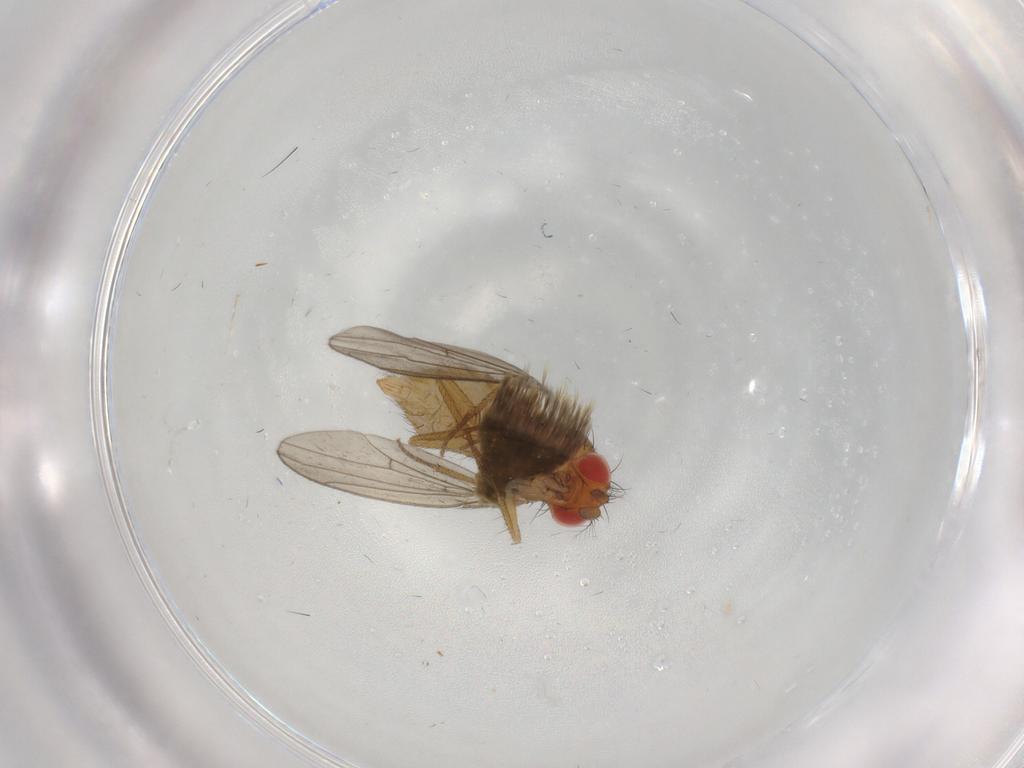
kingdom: Animalia
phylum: Arthropoda
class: Insecta
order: Diptera
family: Drosophilidae
